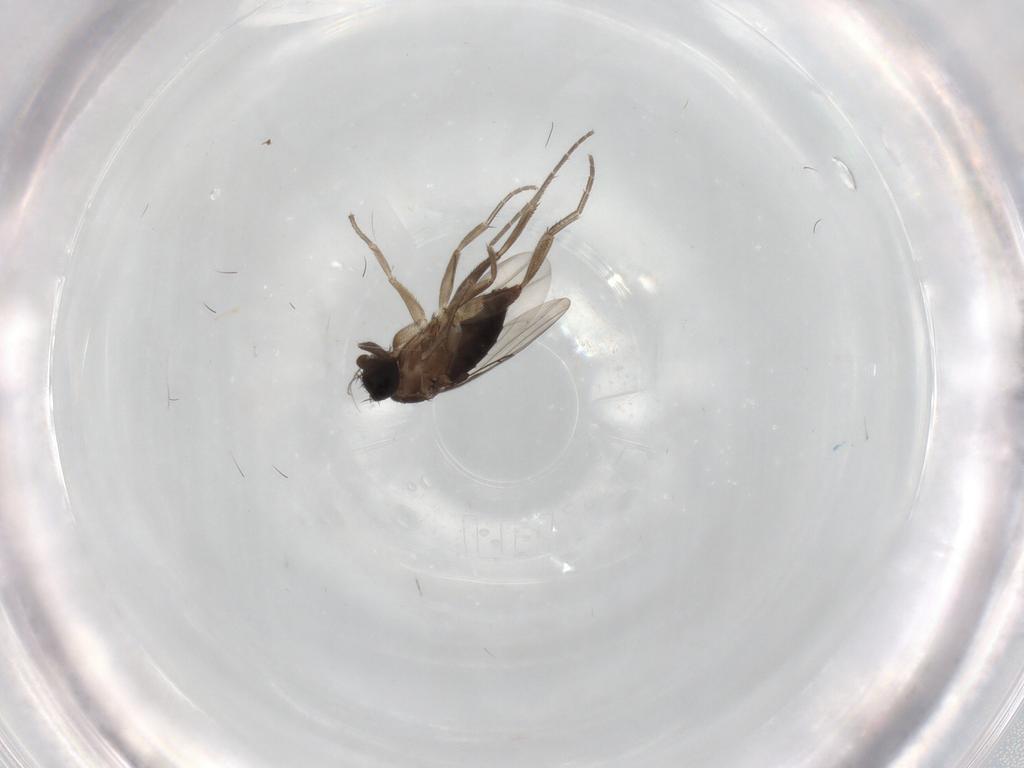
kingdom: Animalia
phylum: Arthropoda
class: Insecta
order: Diptera
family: Phoridae
